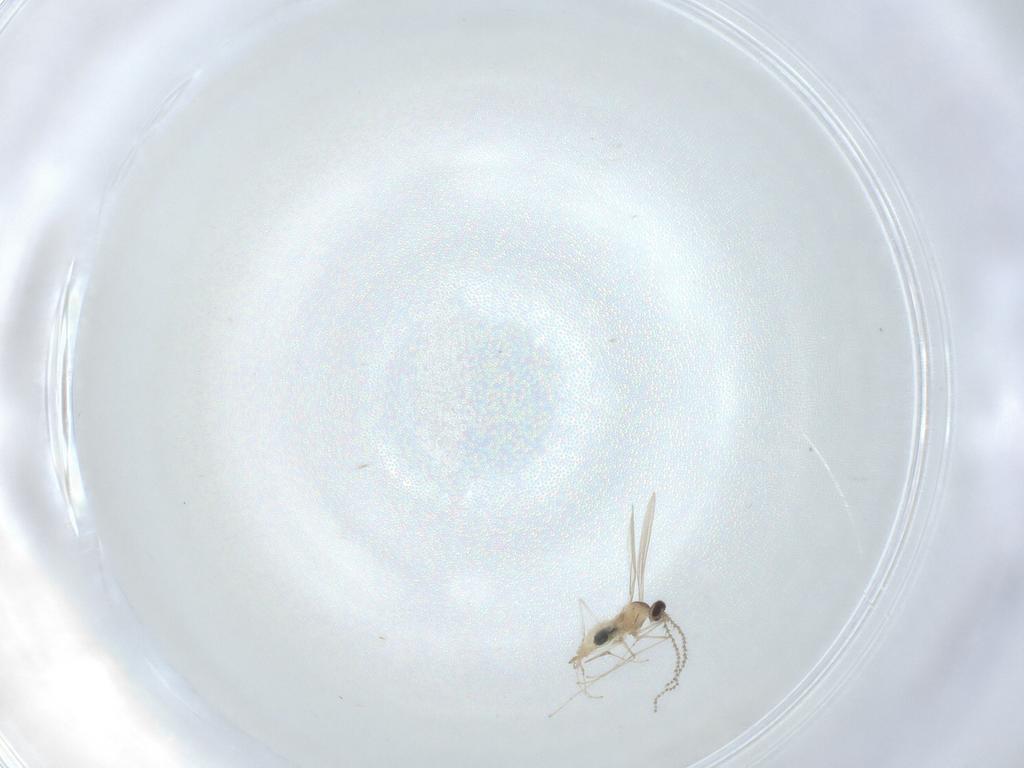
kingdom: Animalia
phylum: Arthropoda
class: Insecta
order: Diptera
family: Cecidomyiidae
